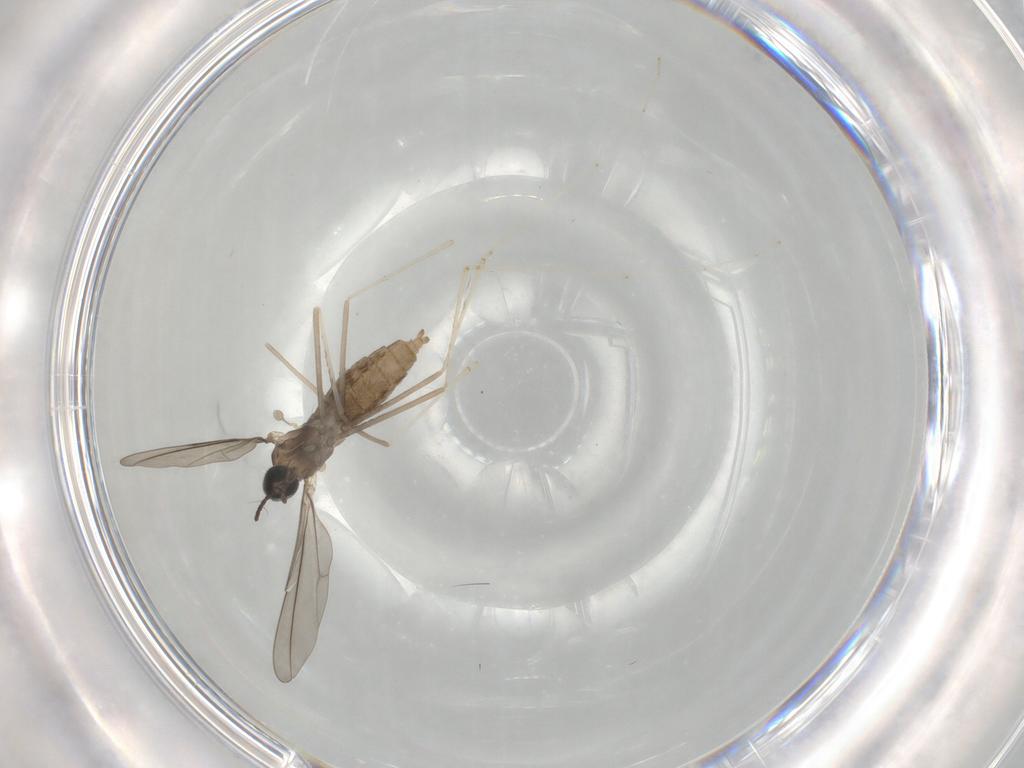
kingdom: Animalia
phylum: Arthropoda
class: Insecta
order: Diptera
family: Cecidomyiidae
